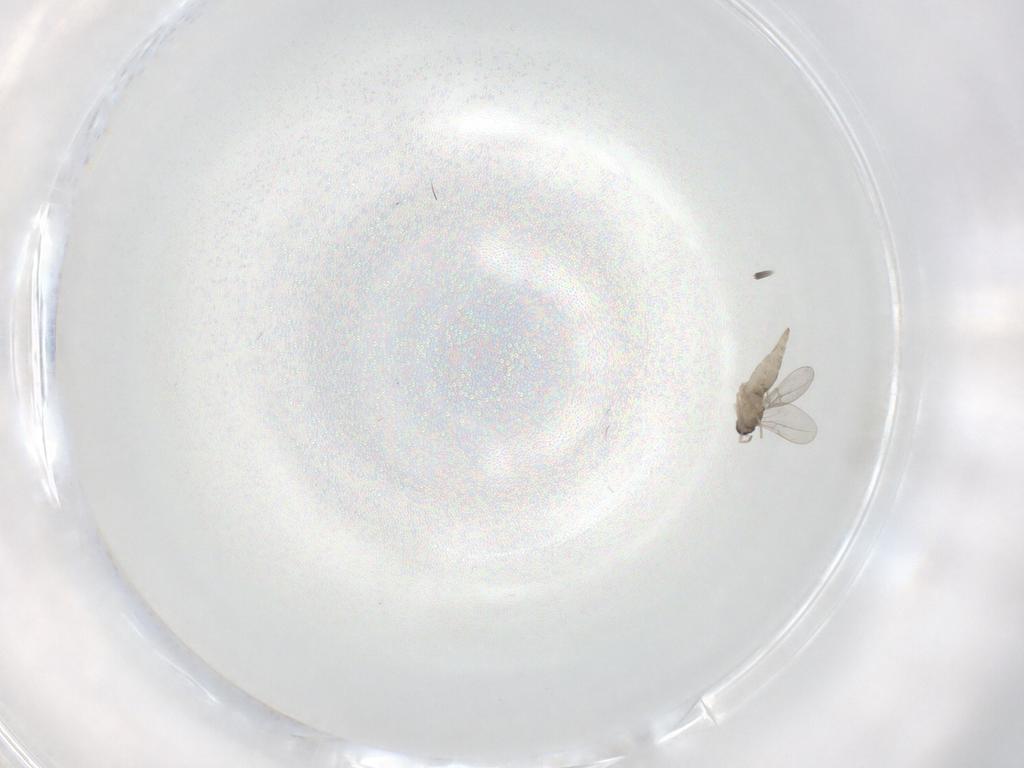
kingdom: Animalia
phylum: Arthropoda
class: Insecta
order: Diptera
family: Cecidomyiidae
